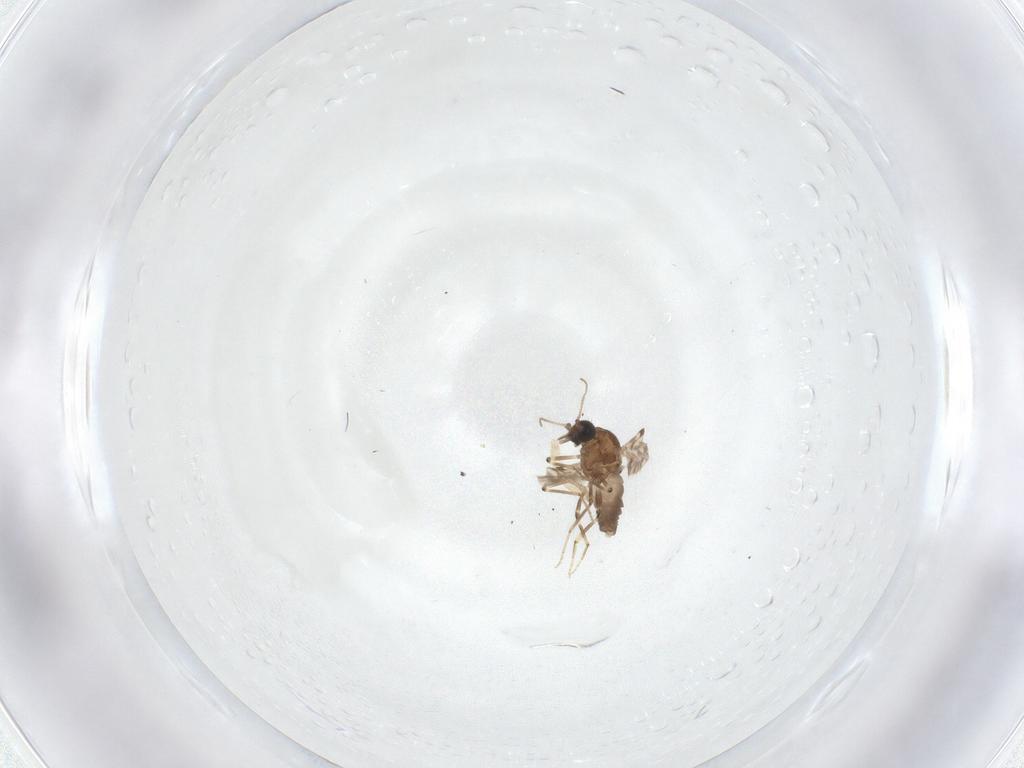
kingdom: Animalia
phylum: Arthropoda
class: Insecta
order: Diptera
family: Ceratopogonidae
